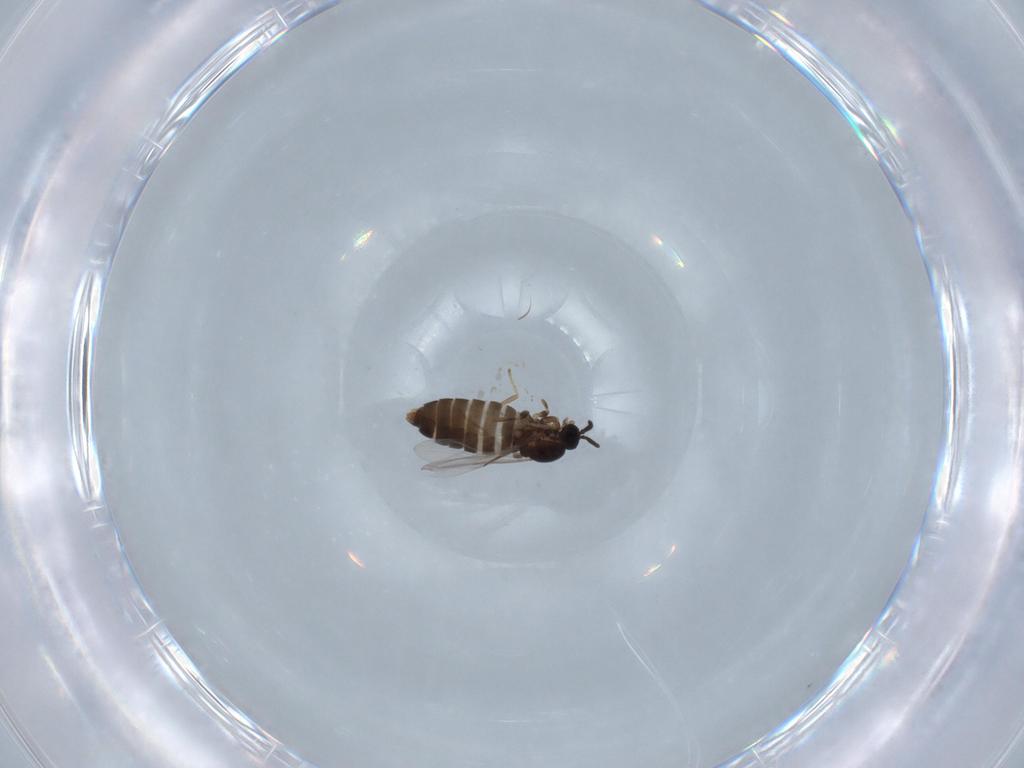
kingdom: Animalia
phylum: Arthropoda
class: Insecta
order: Diptera
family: Scatopsidae
